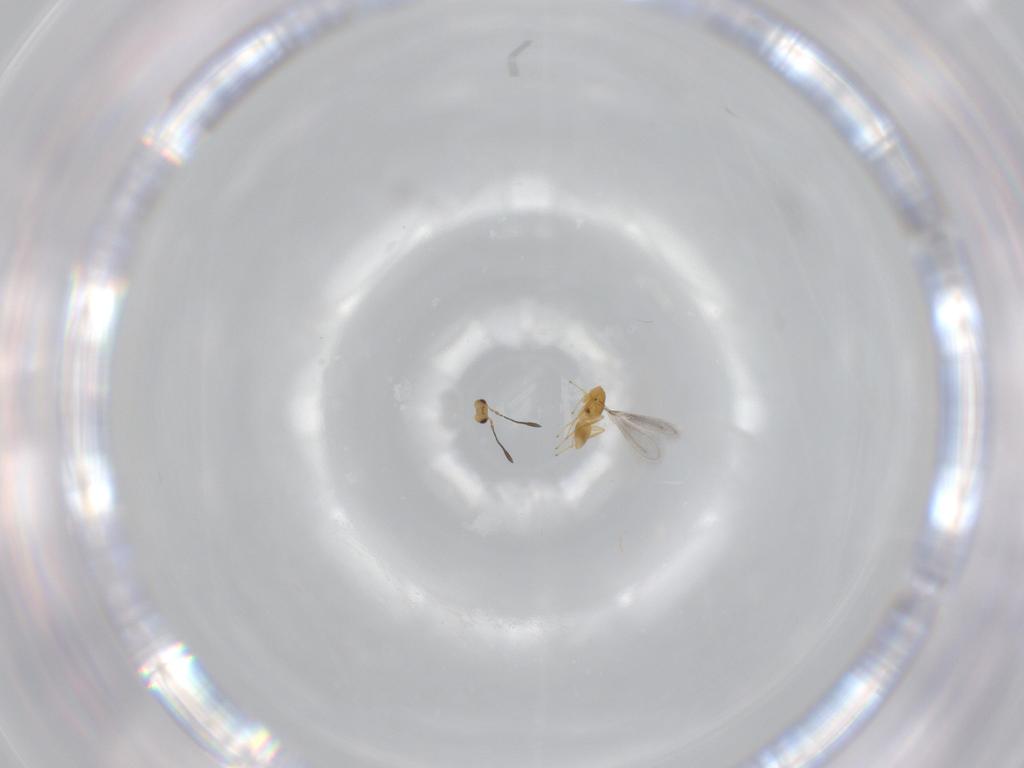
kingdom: Animalia
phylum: Arthropoda
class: Insecta
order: Hymenoptera
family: Mymaridae
